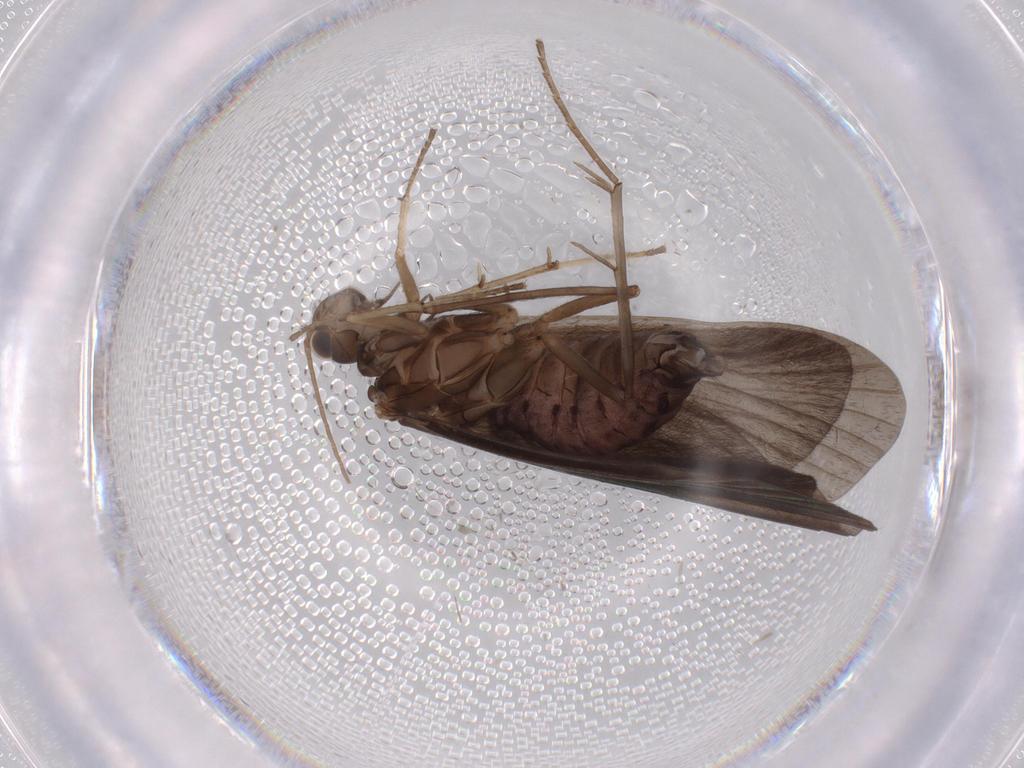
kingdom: Animalia
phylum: Arthropoda
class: Insecta
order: Trichoptera
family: Hydropsychidae
